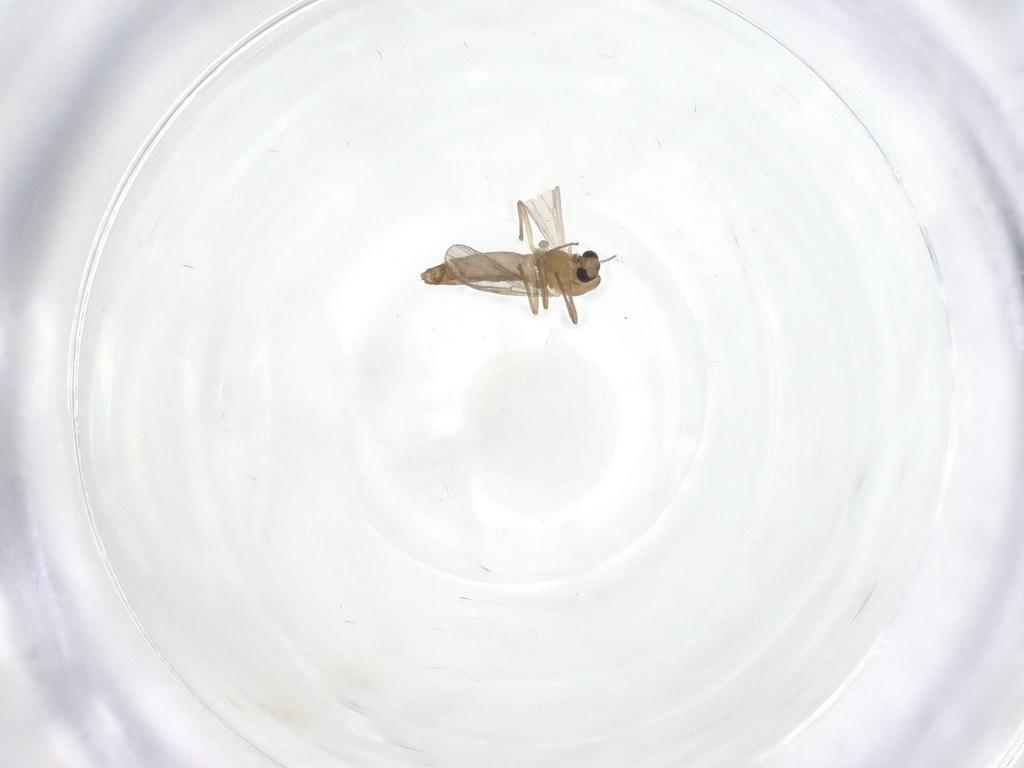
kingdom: Animalia
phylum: Arthropoda
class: Insecta
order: Diptera
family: Chironomidae
